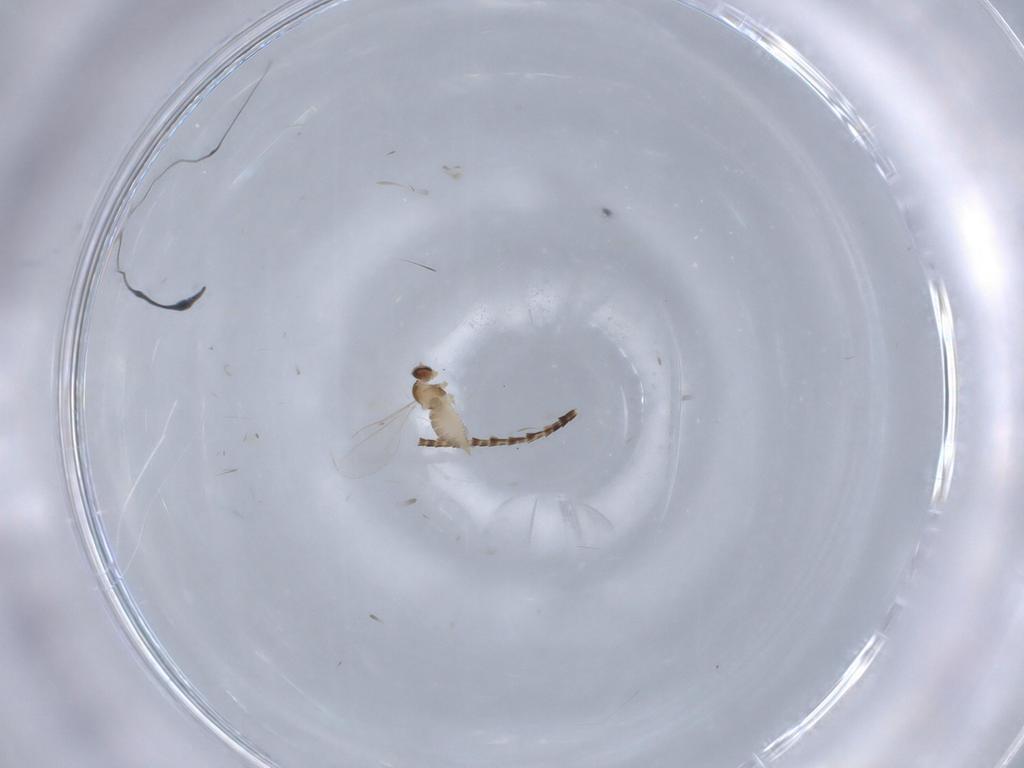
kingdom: Animalia
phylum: Arthropoda
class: Insecta
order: Diptera
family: Cecidomyiidae
